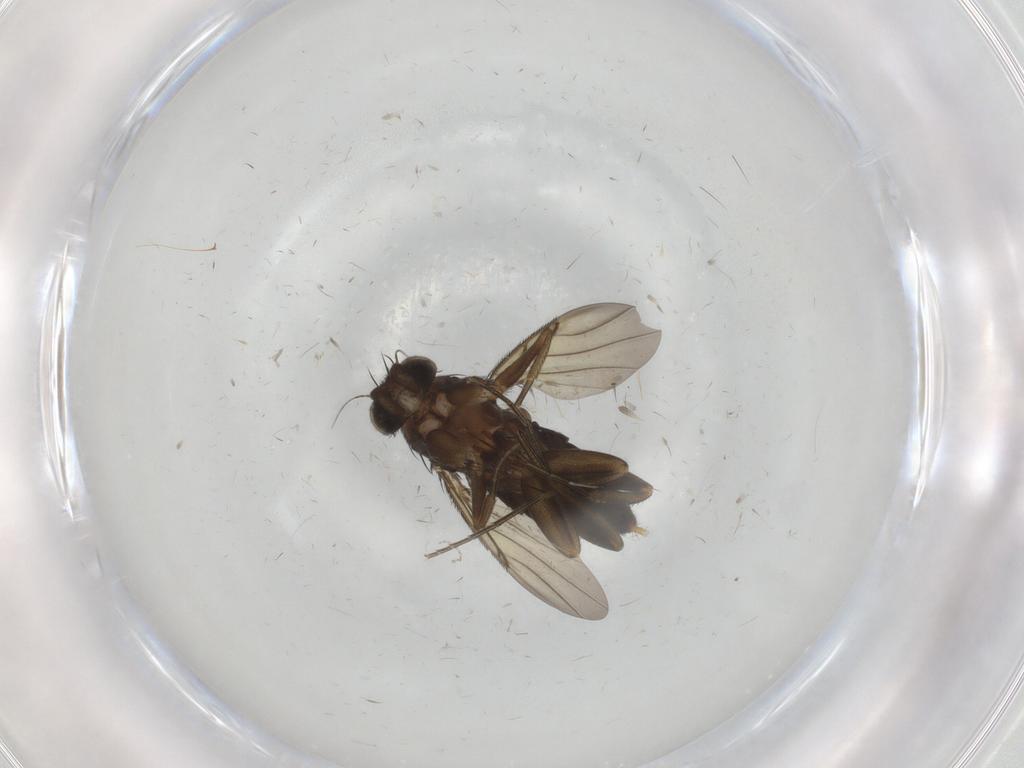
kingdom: Animalia
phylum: Arthropoda
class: Insecta
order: Diptera
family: Phoridae
